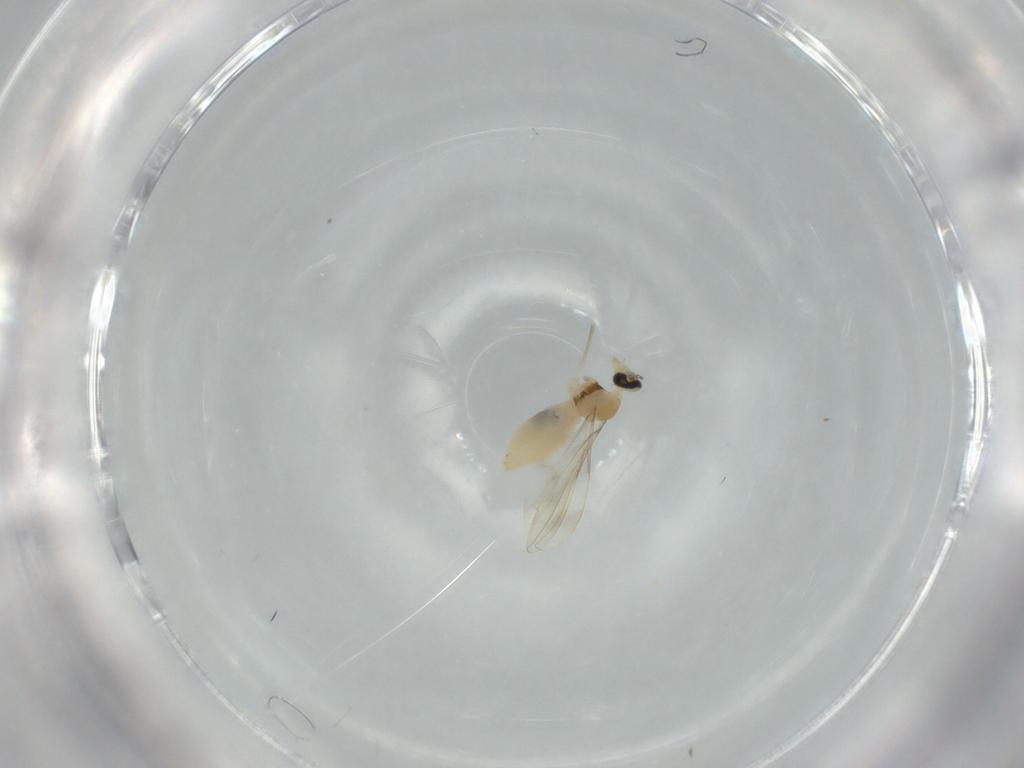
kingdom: Animalia
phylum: Arthropoda
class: Insecta
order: Diptera
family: Cecidomyiidae
